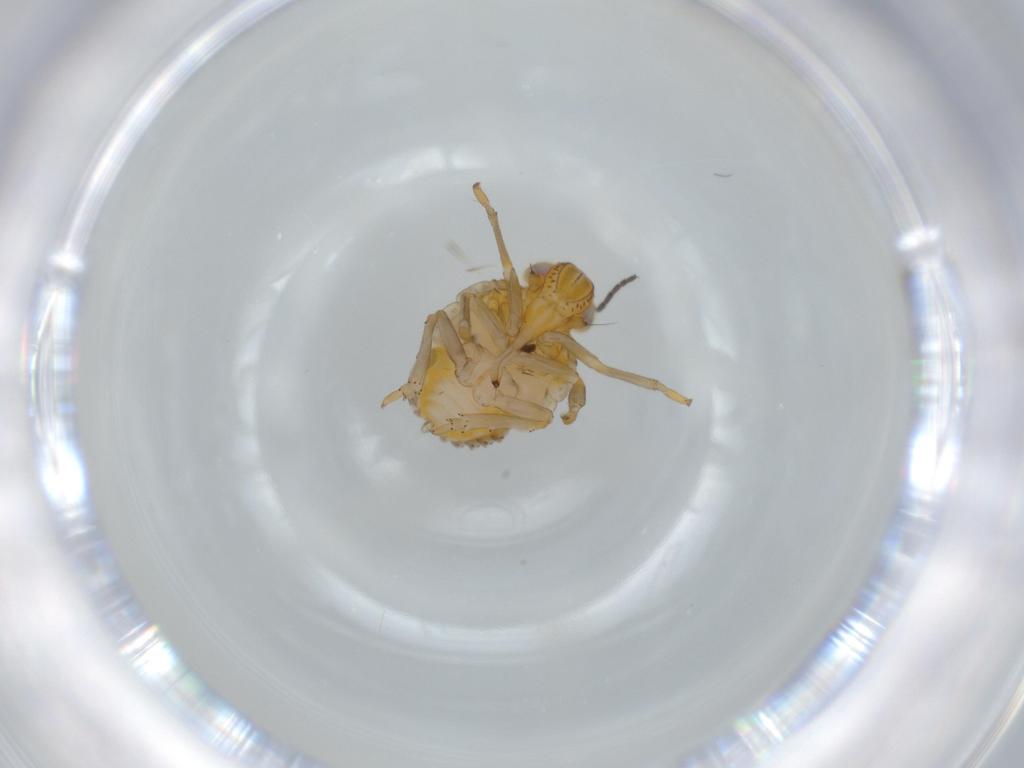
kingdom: Animalia
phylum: Arthropoda
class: Insecta
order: Hemiptera
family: Issidae
